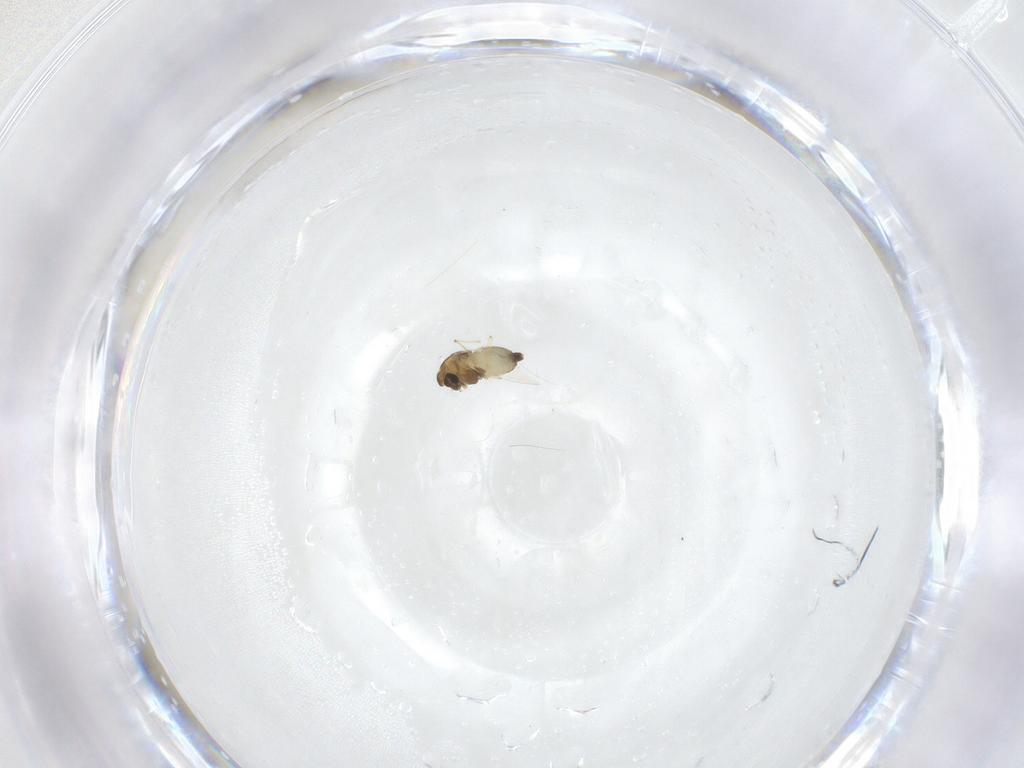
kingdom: Animalia
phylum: Arthropoda
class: Insecta
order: Diptera
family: Chironomidae
